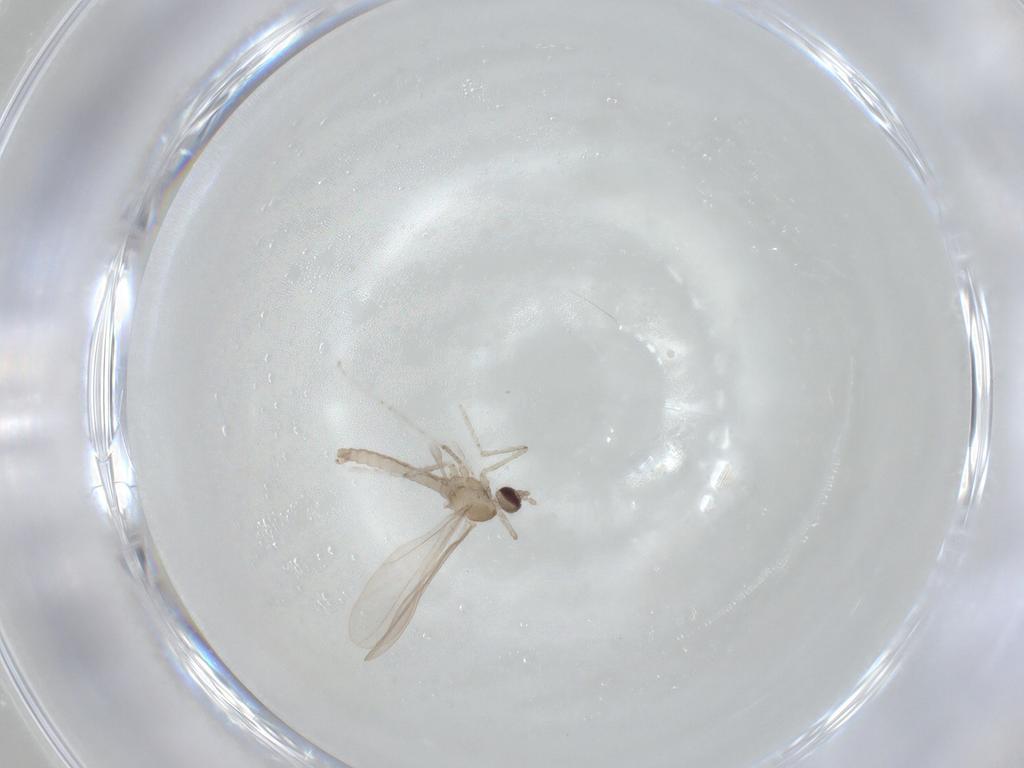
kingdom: Animalia
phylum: Arthropoda
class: Insecta
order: Diptera
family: Cecidomyiidae
